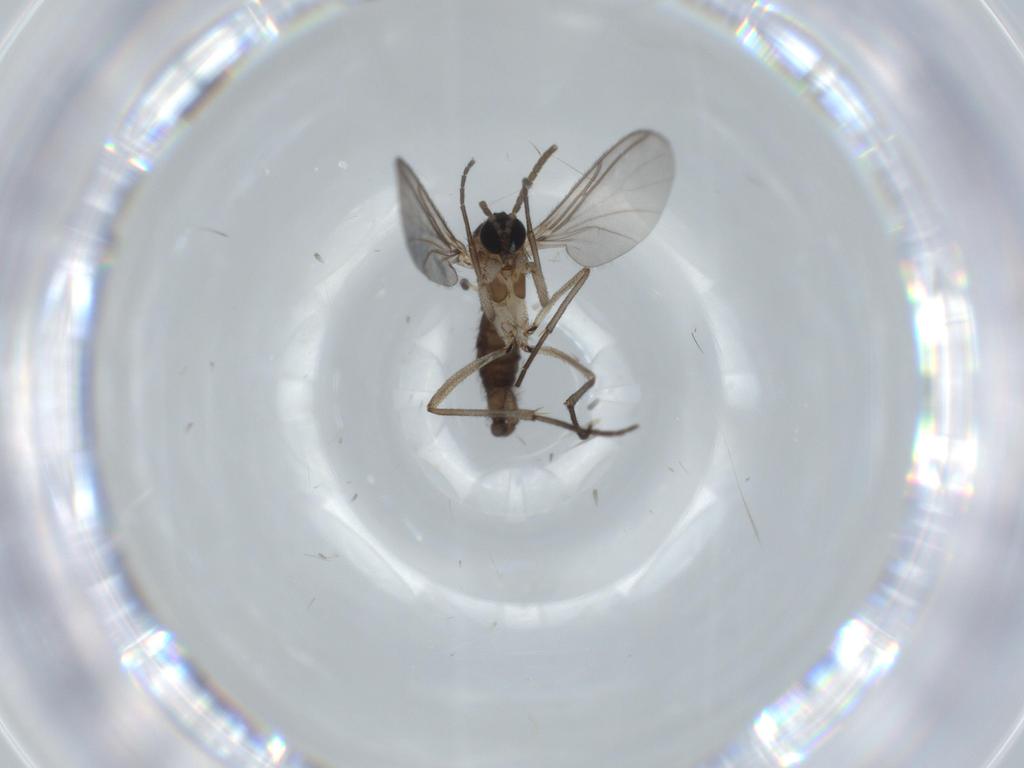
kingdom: Animalia
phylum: Arthropoda
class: Insecta
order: Diptera
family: Sciaridae
